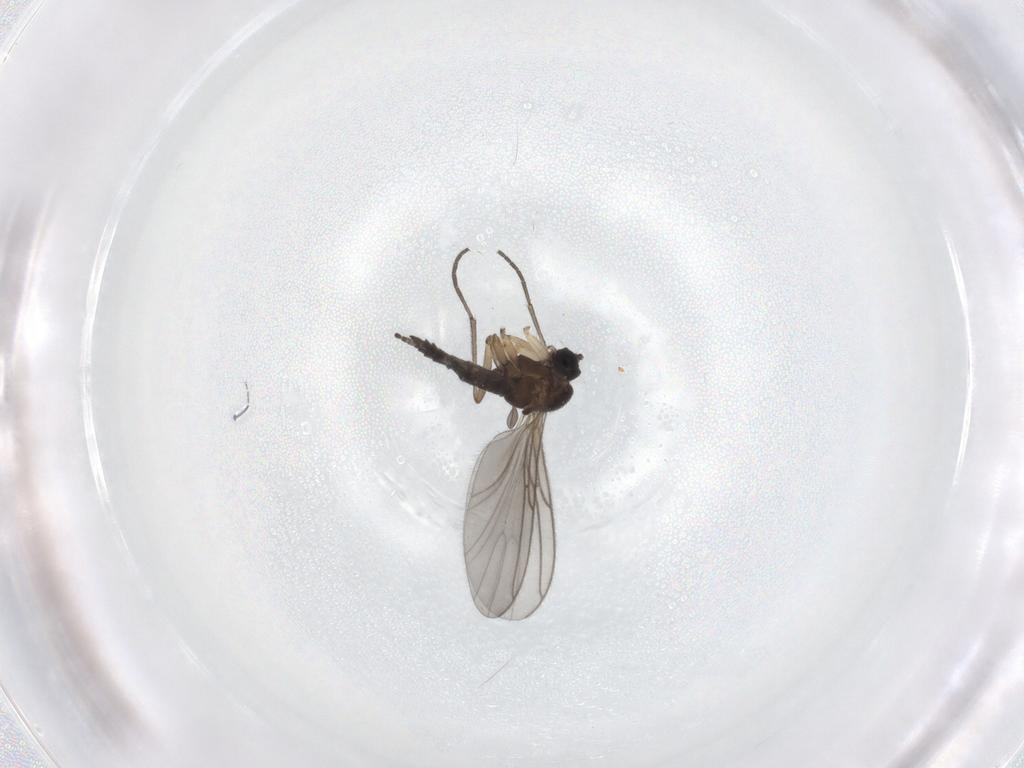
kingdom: Animalia
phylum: Arthropoda
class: Insecta
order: Diptera
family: Sciaridae
